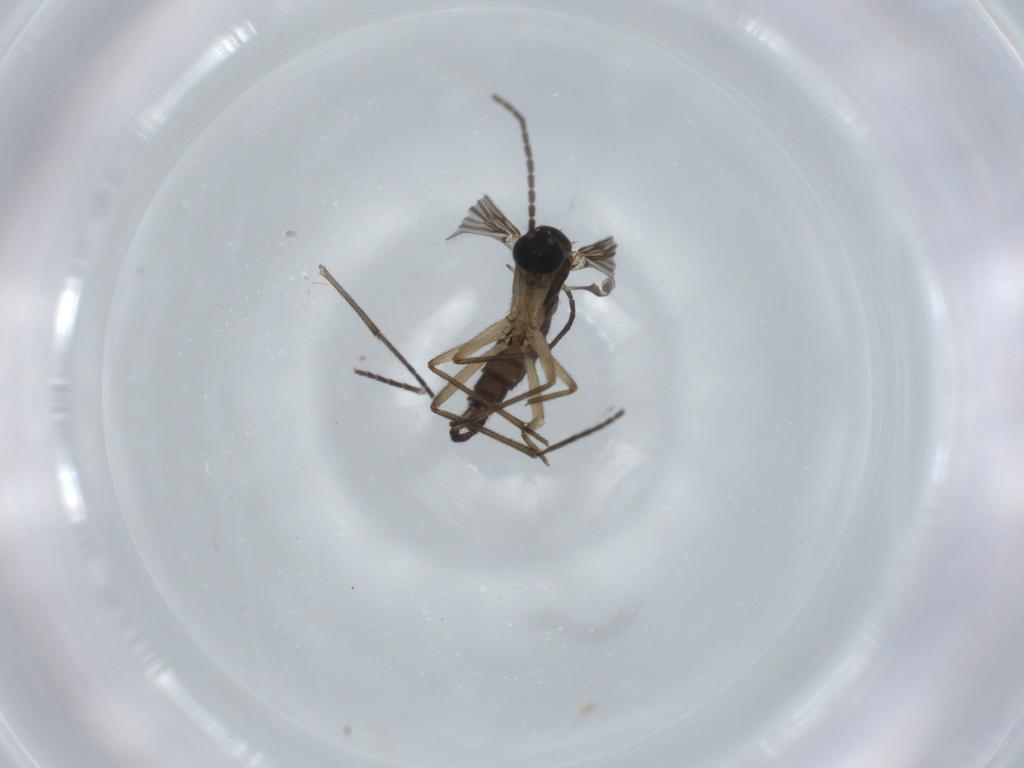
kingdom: Animalia
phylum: Arthropoda
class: Insecta
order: Diptera
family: Sciaridae
